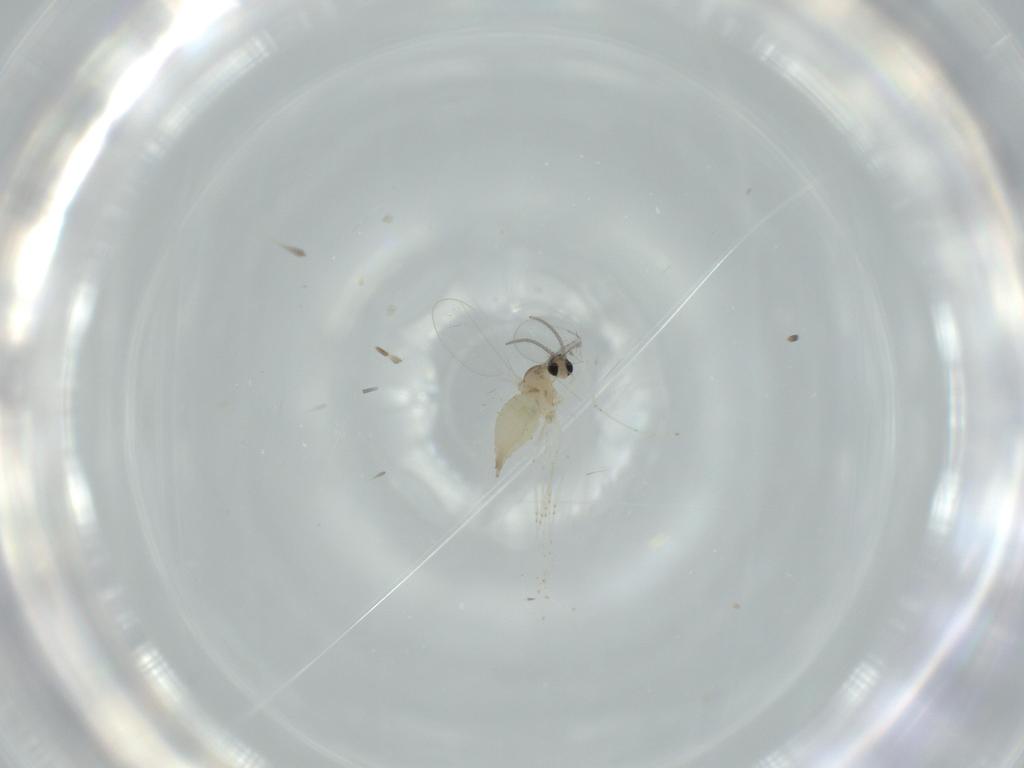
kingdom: Animalia
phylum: Arthropoda
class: Insecta
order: Diptera
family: Cecidomyiidae
